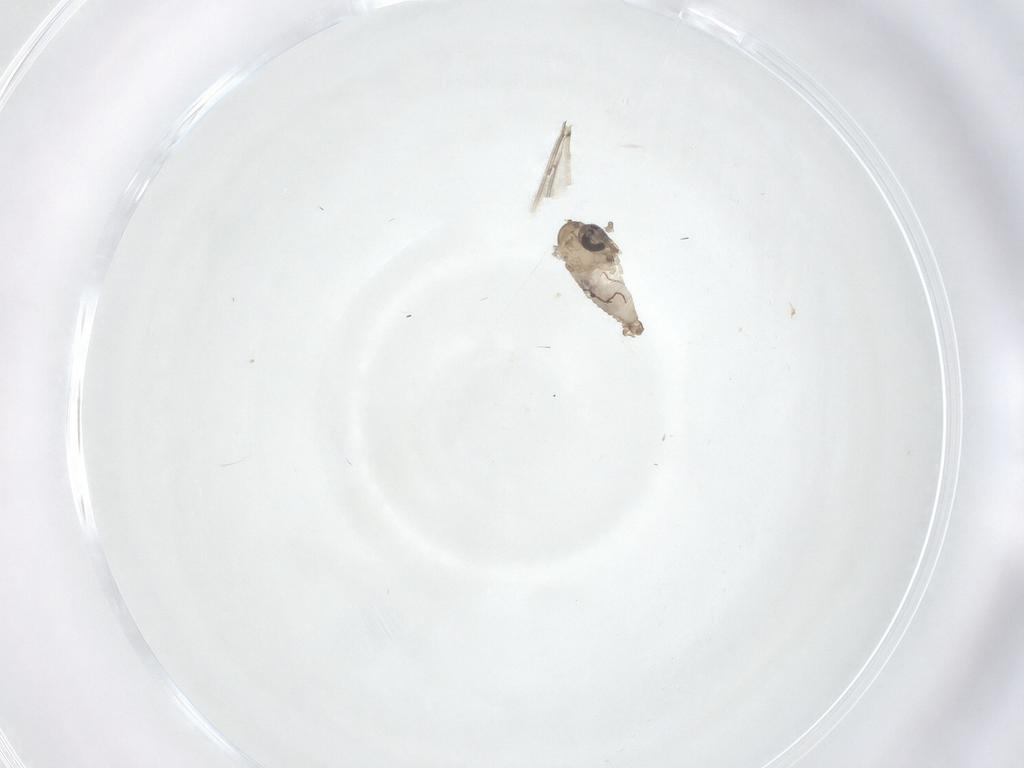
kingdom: Animalia
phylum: Arthropoda
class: Insecta
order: Diptera
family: Psychodidae
